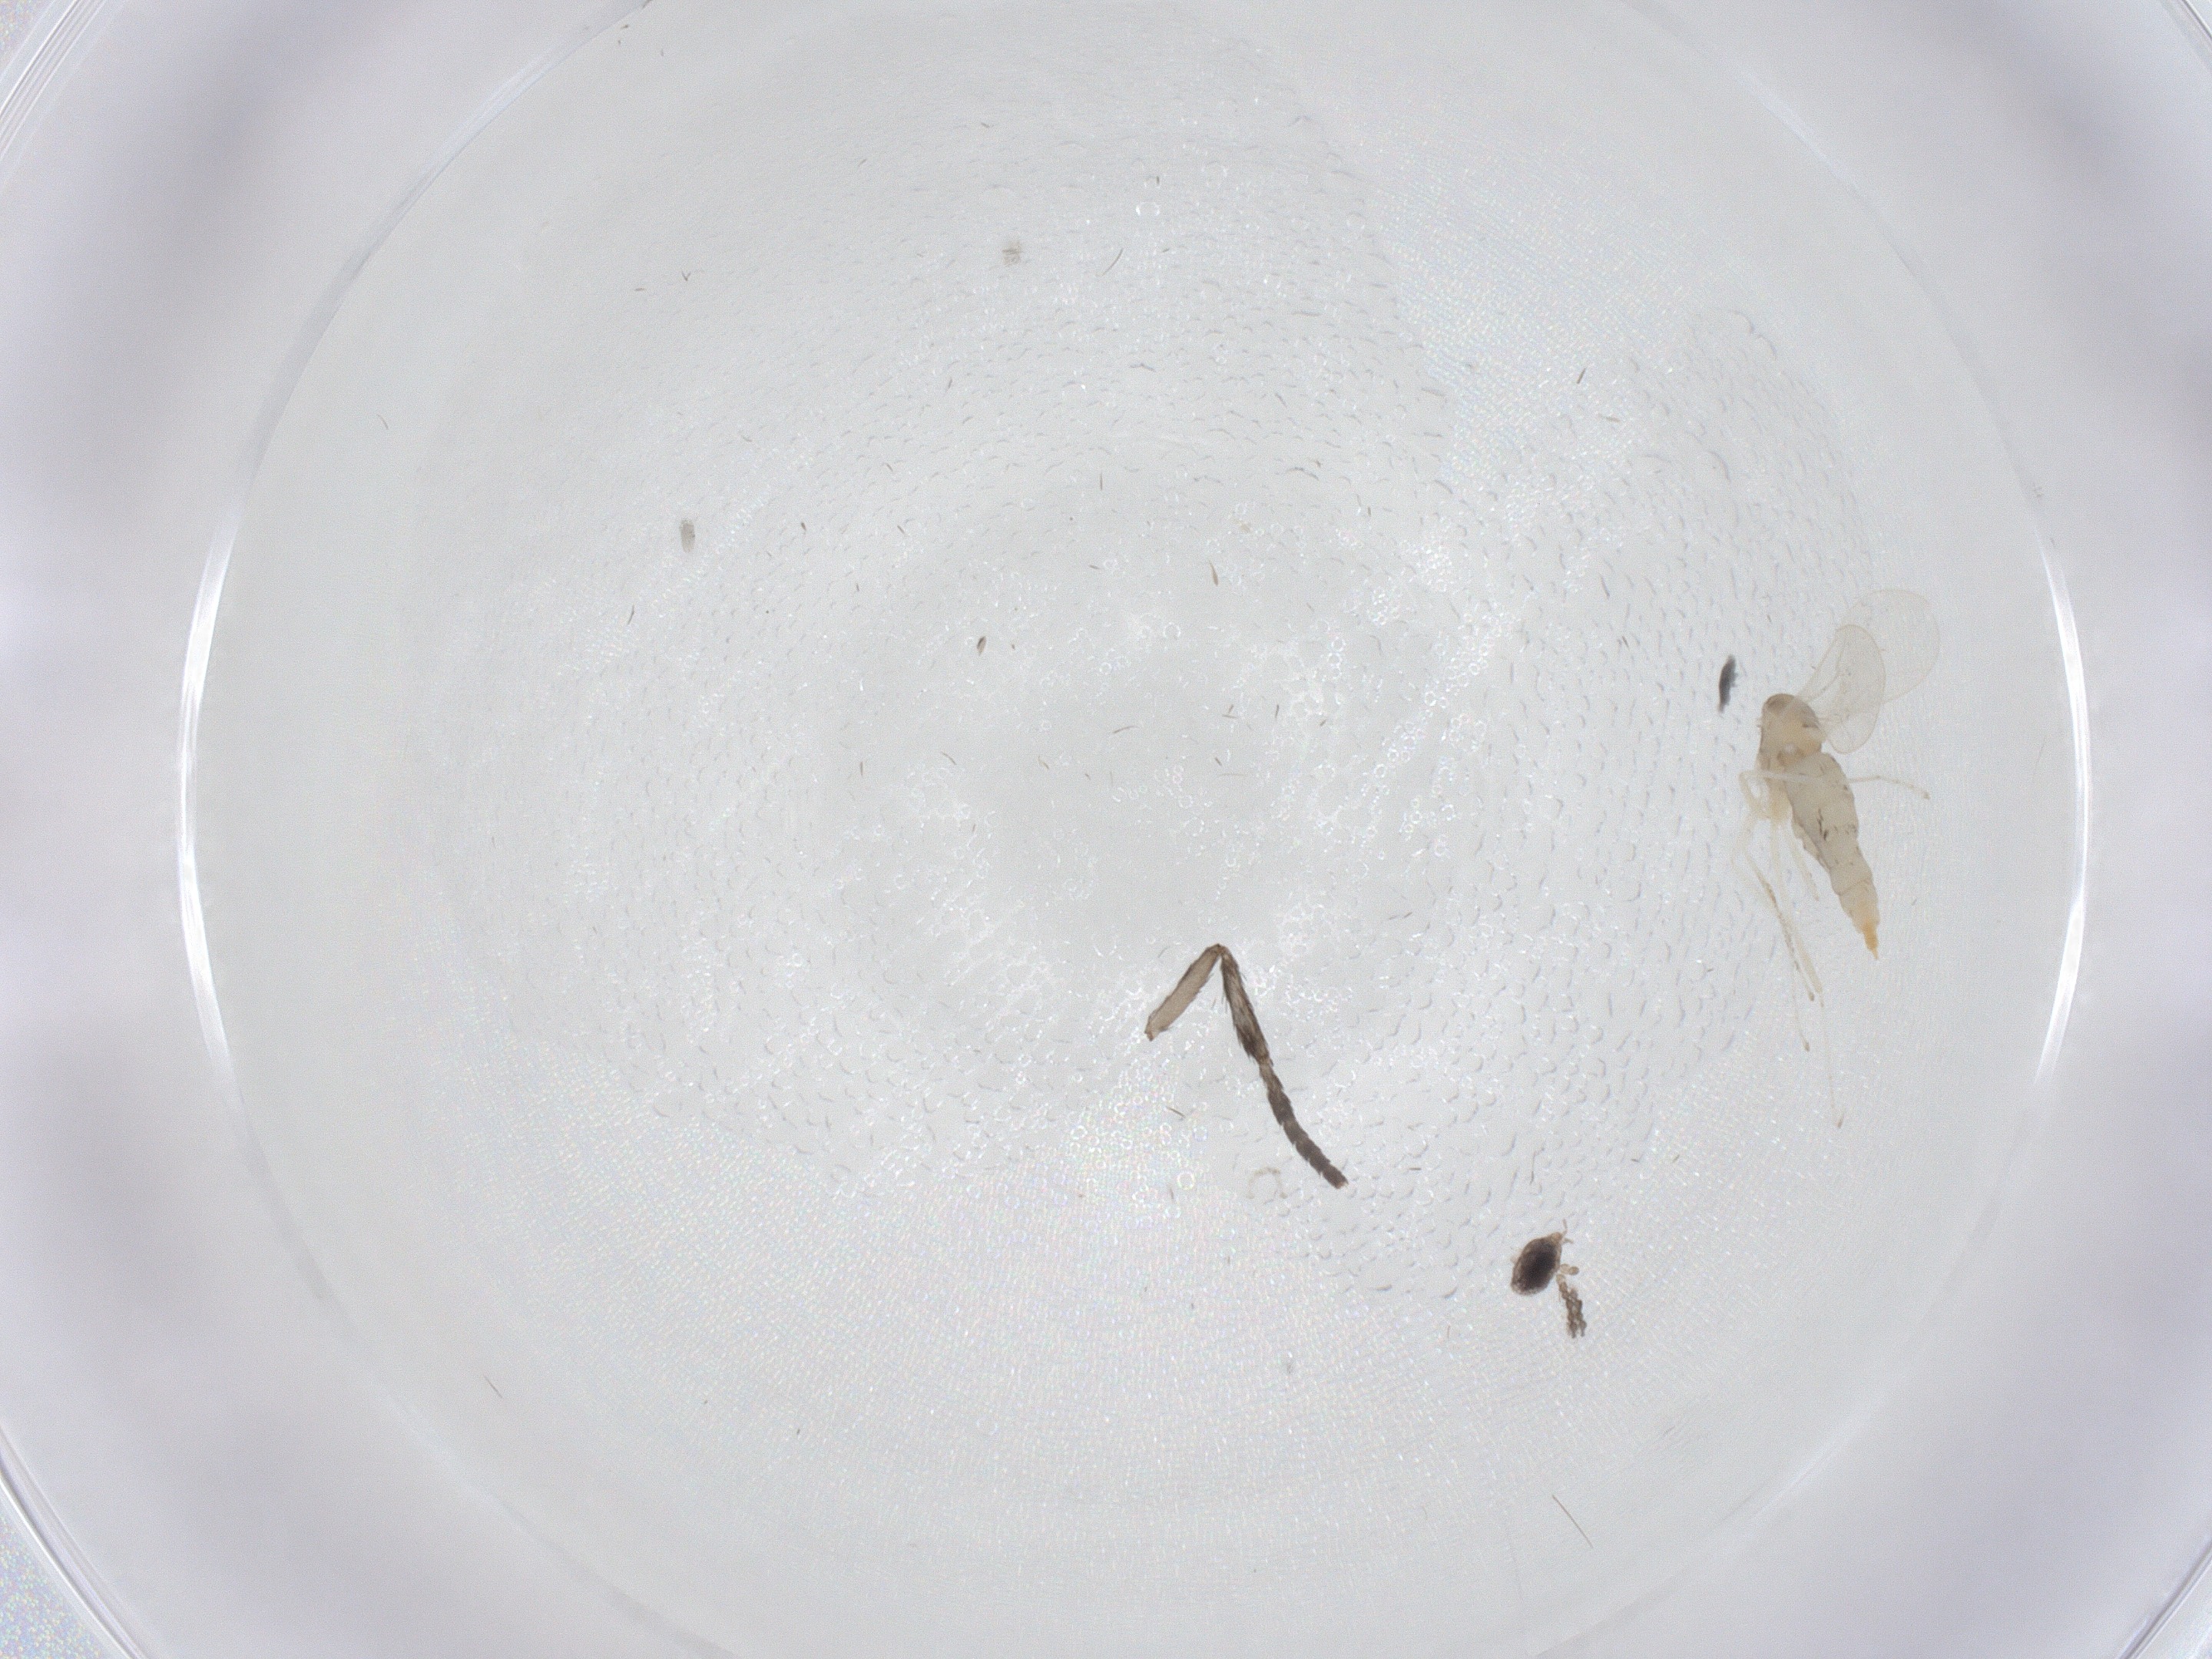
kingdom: Animalia
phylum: Arthropoda
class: Insecta
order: Diptera
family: Cecidomyiidae
